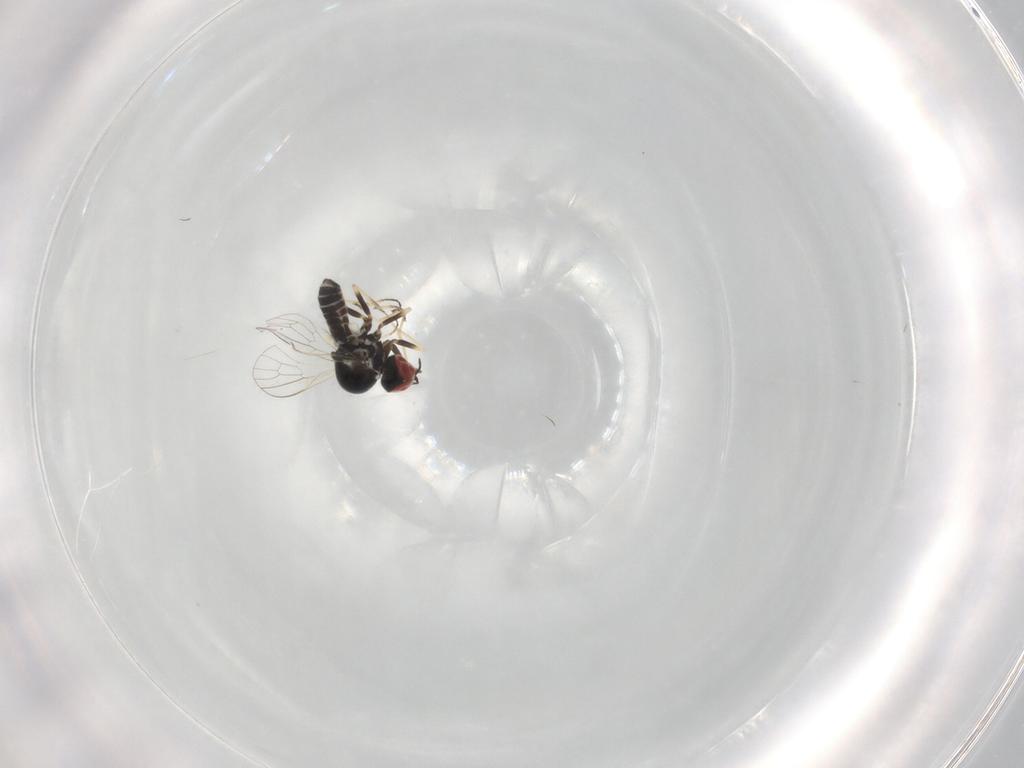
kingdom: Animalia
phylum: Arthropoda
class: Insecta
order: Diptera
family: Bombyliidae
